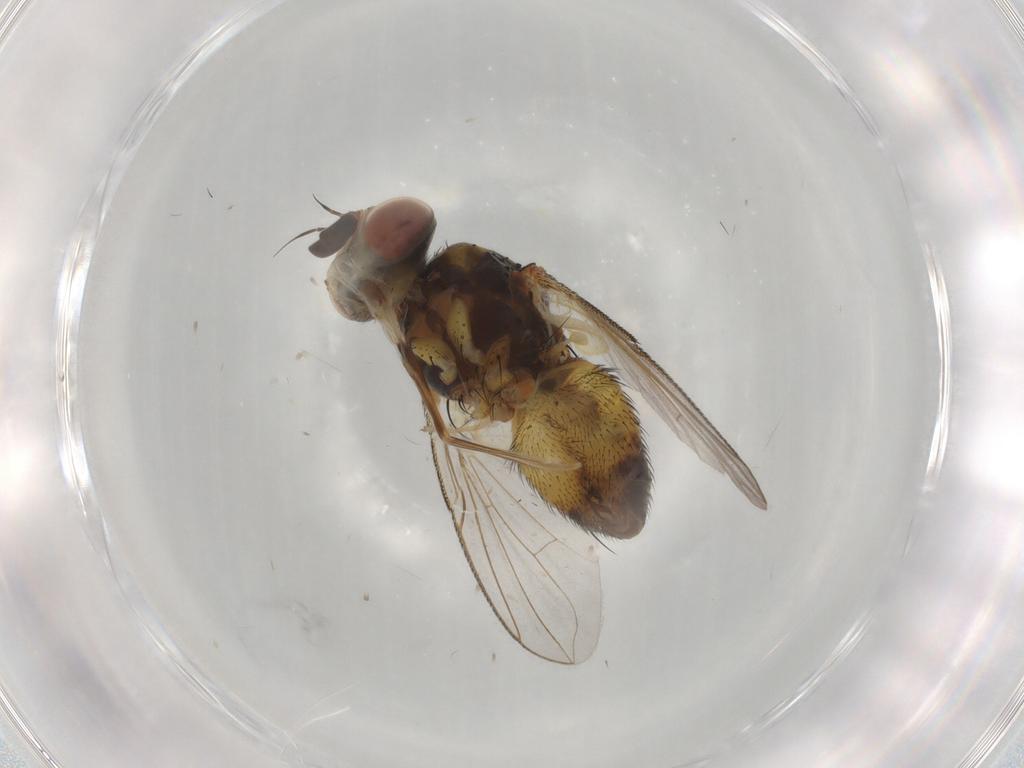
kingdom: Animalia
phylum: Arthropoda
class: Insecta
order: Diptera
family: Tachinidae
